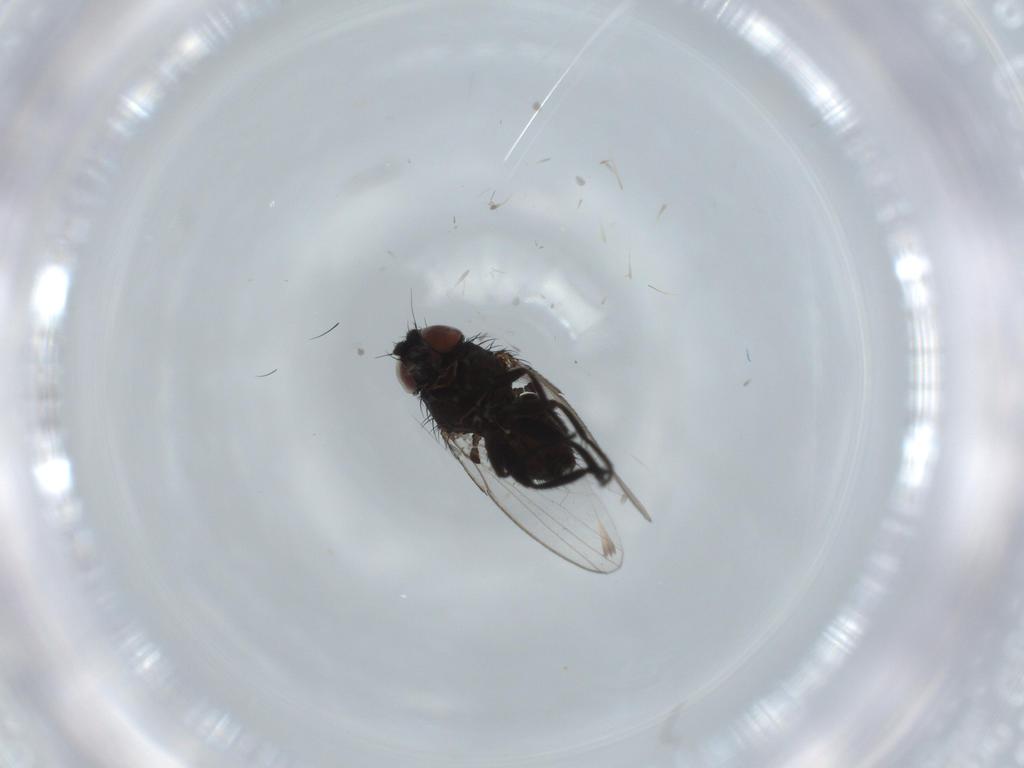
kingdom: Animalia
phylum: Arthropoda
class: Insecta
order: Diptera
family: Milichiidae
